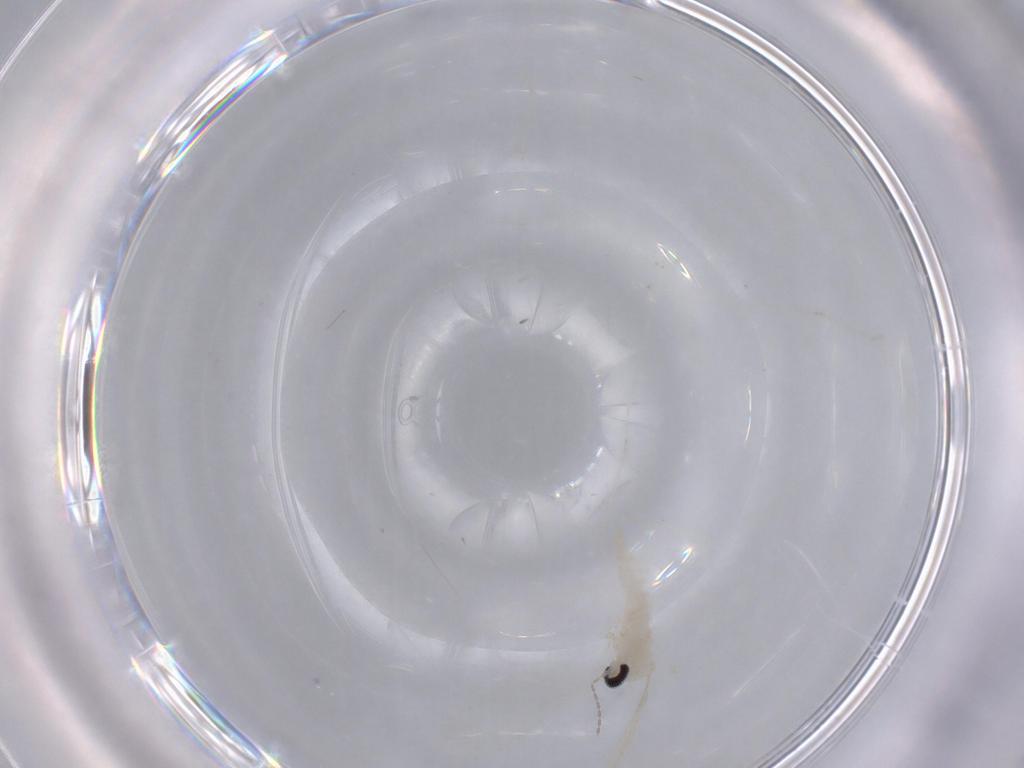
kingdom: Animalia
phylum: Arthropoda
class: Insecta
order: Diptera
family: Cecidomyiidae
